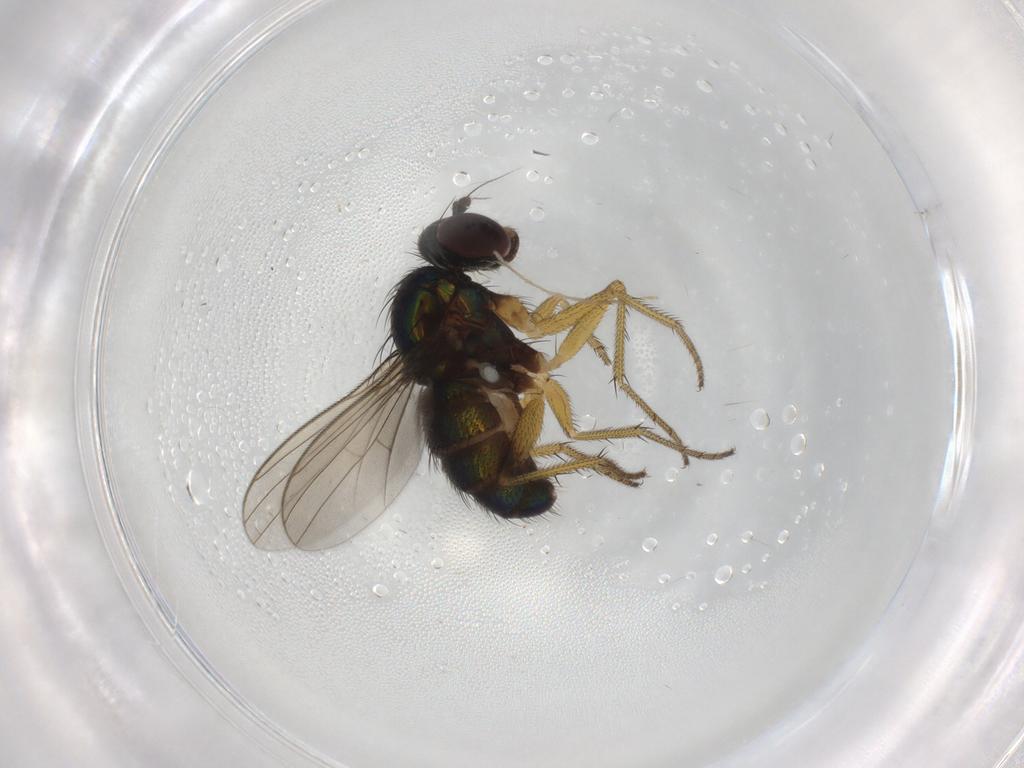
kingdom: Animalia
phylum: Arthropoda
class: Insecta
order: Diptera
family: Dolichopodidae
